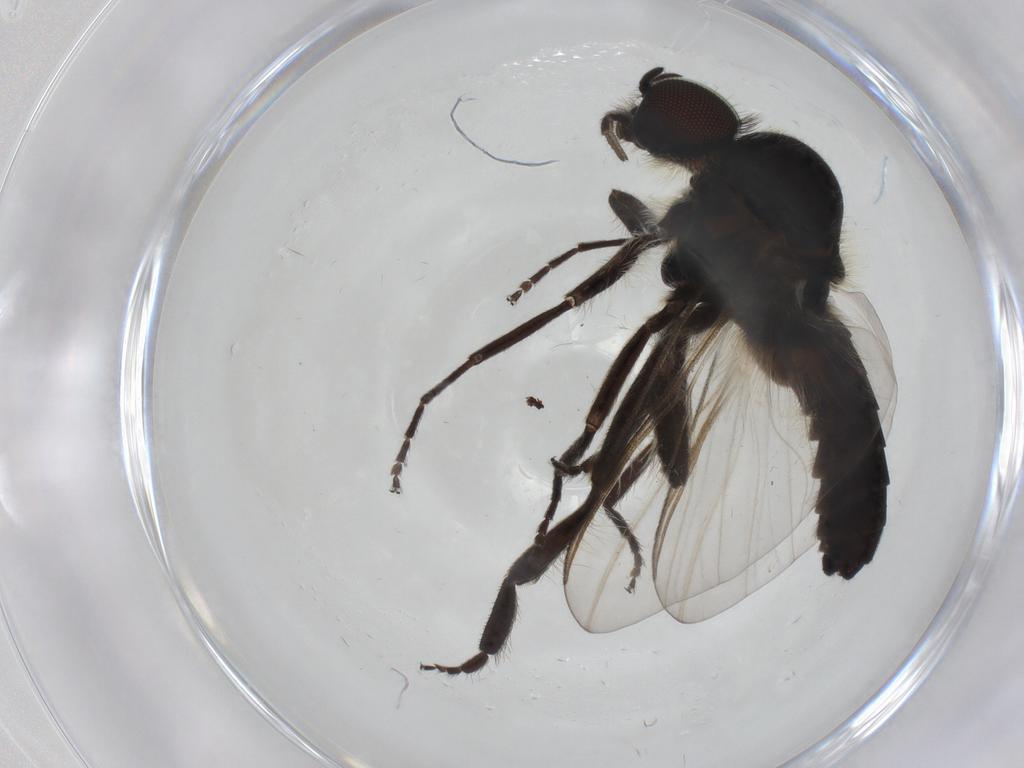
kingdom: Animalia
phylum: Arthropoda
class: Insecta
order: Diptera
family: Simuliidae
